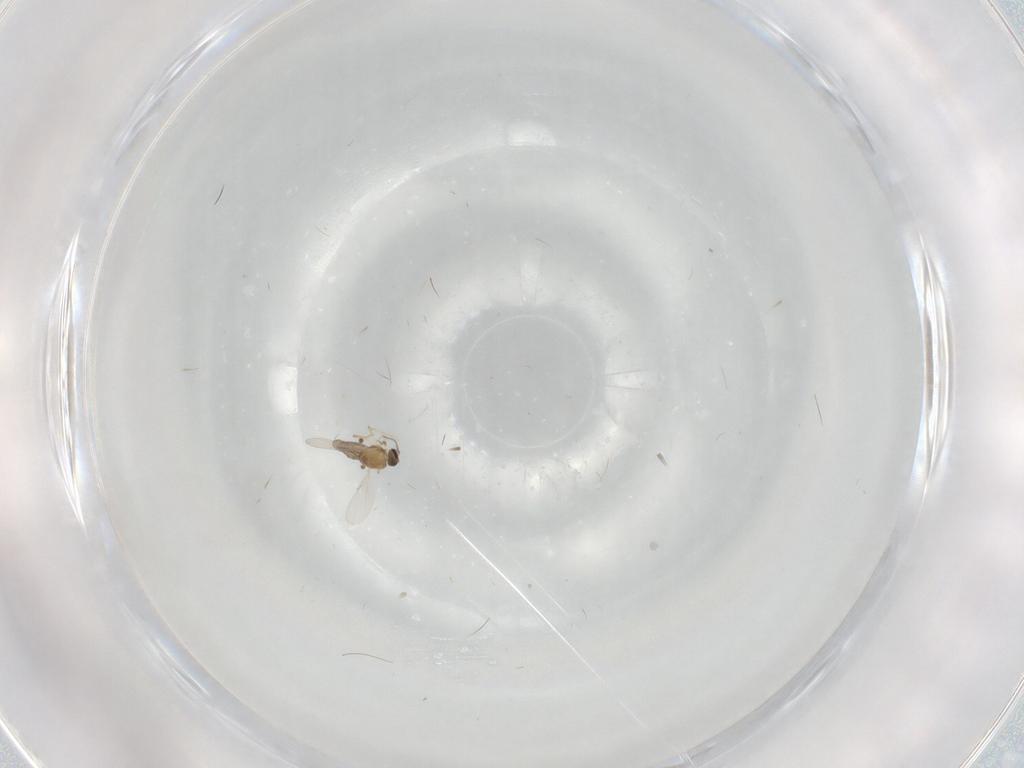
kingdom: Animalia
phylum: Arthropoda
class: Insecta
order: Diptera
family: Ceratopogonidae
